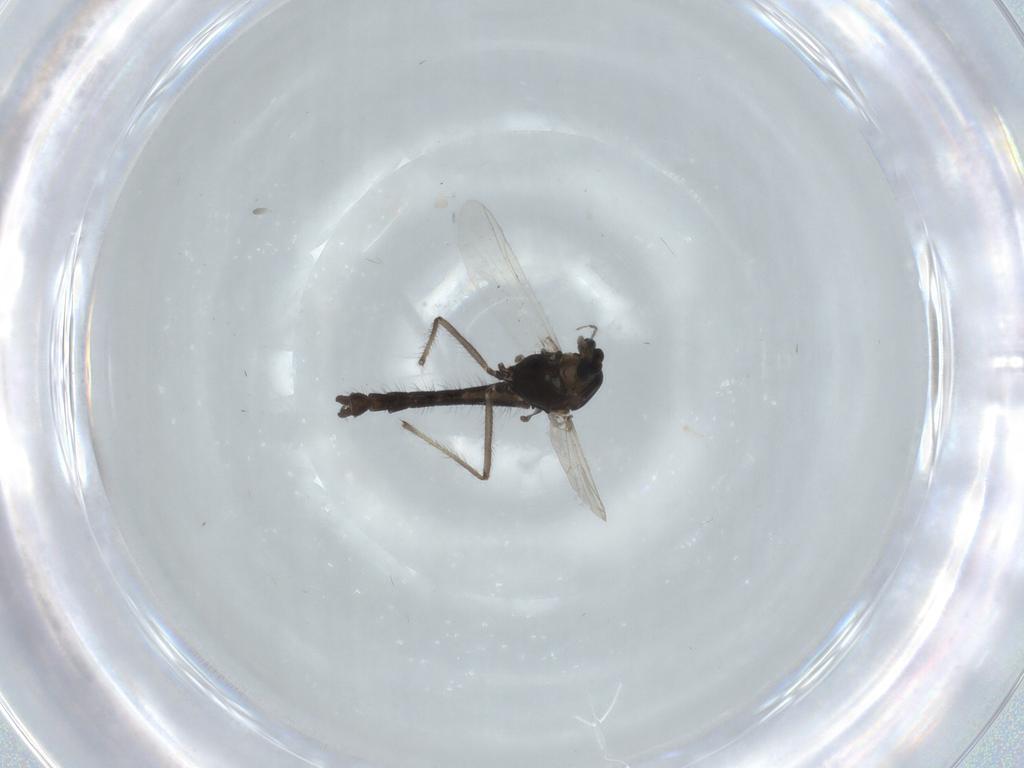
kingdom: Animalia
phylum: Arthropoda
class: Insecta
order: Diptera
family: Chironomidae
